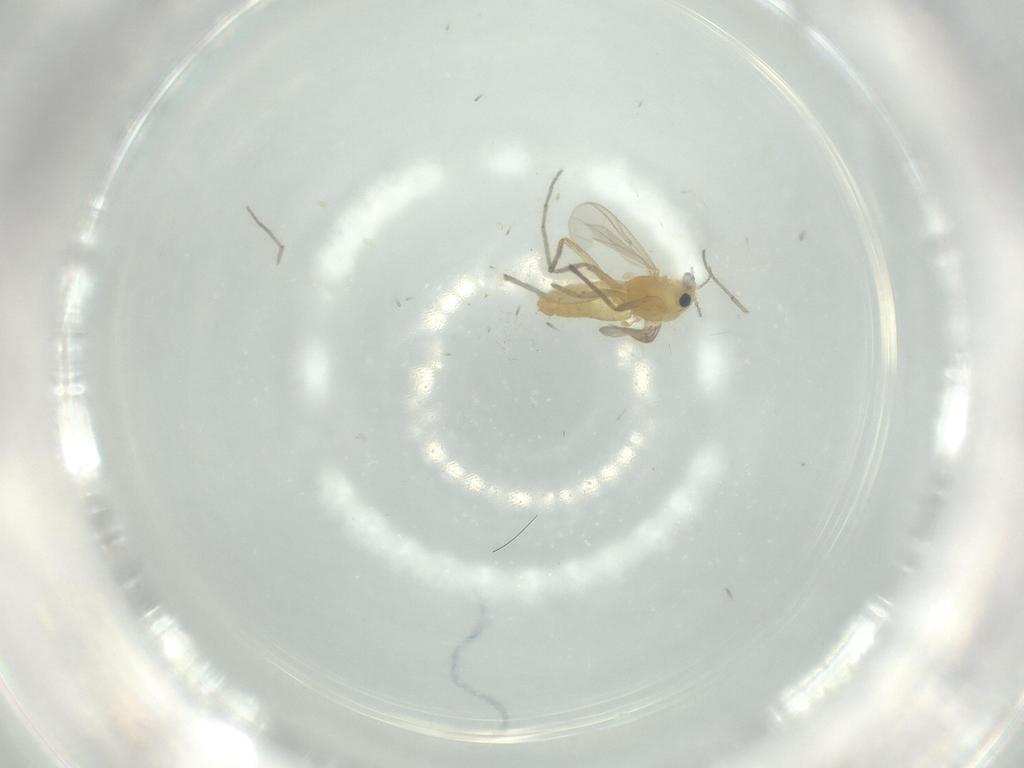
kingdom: Animalia
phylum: Arthropoda
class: Insecta
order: Diptera
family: Chironomidae
